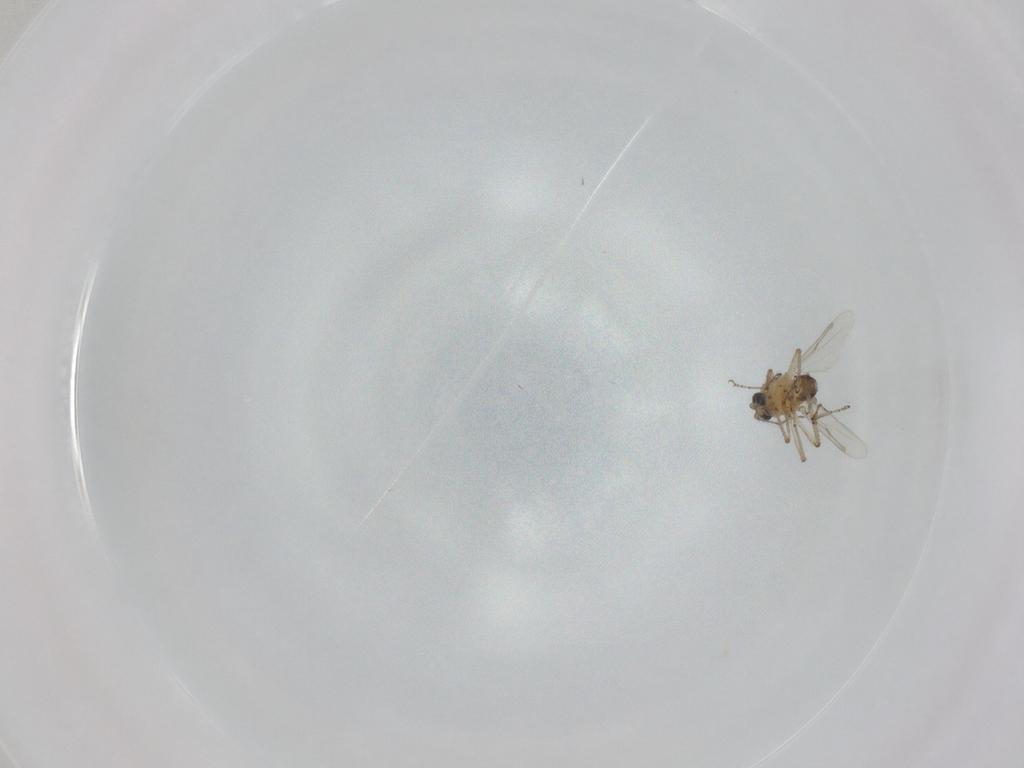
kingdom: Animalia
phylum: Arthropoda
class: Insecta
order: Diptera
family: Ceratopogonidae
